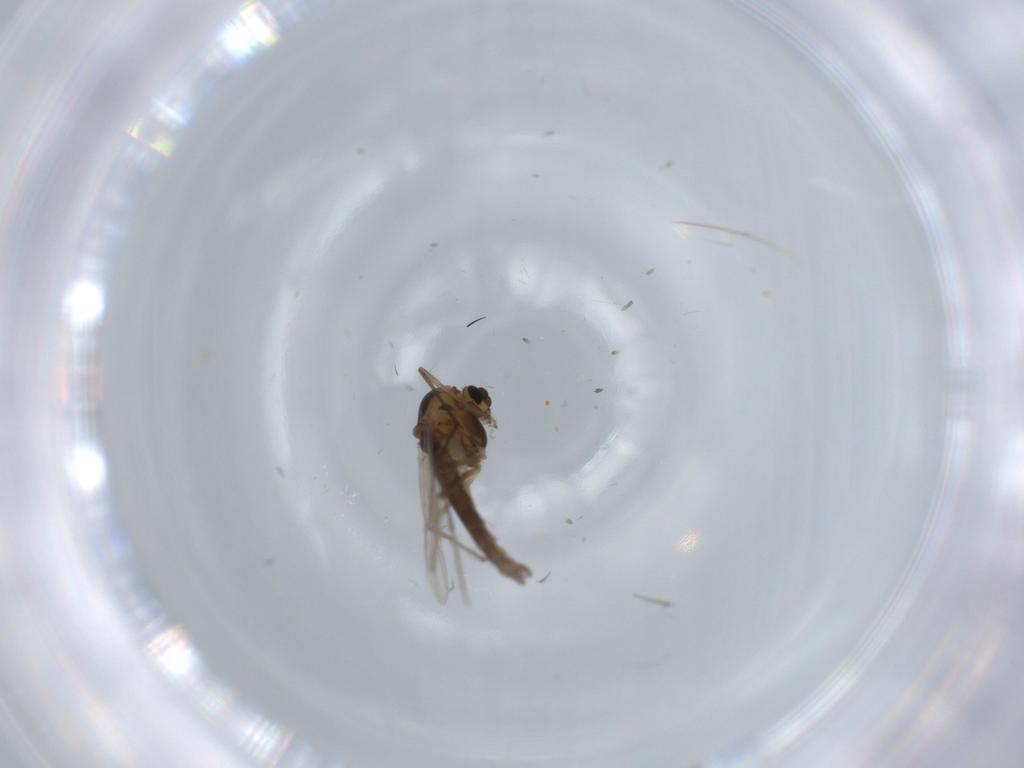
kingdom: Animalia
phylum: Arthropoda
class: Insecta
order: Diptera
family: Chironomidae
